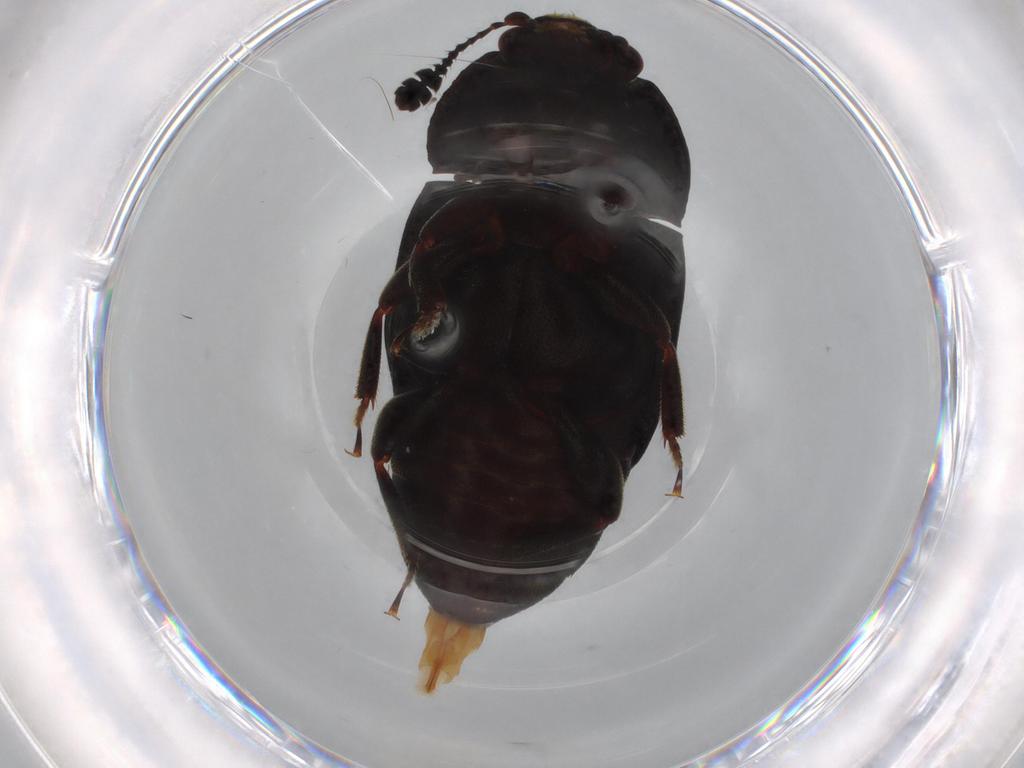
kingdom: Animalia
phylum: Arthropoda
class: Insecta
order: Coleoptera
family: Nitidulidae
